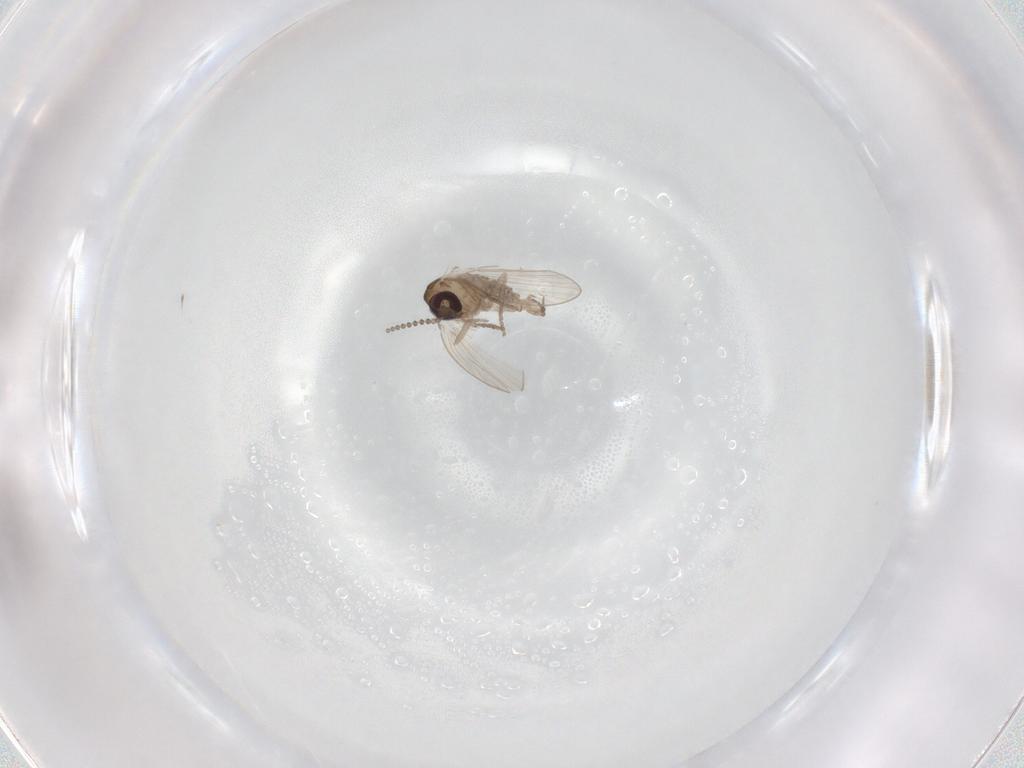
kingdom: Animalia
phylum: Arthropoda
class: Insecta
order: Diptera
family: Psychodidae
